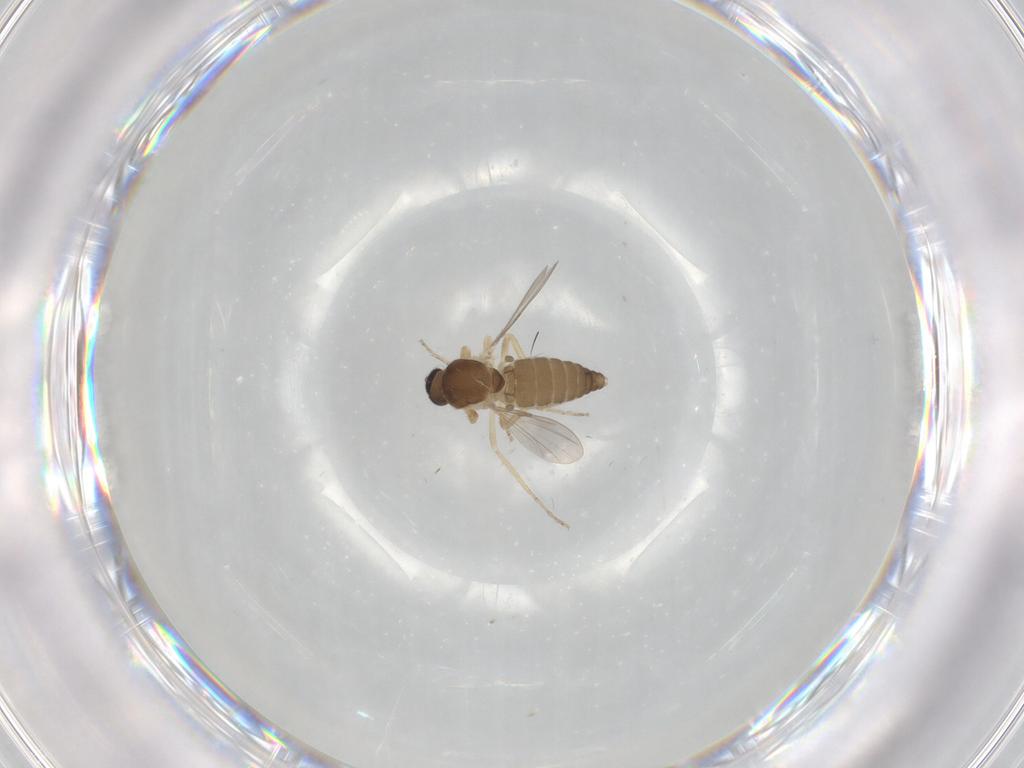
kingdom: Animalia
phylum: Arthropoda
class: Insecta
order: Diptera
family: Ceratopogonidae
